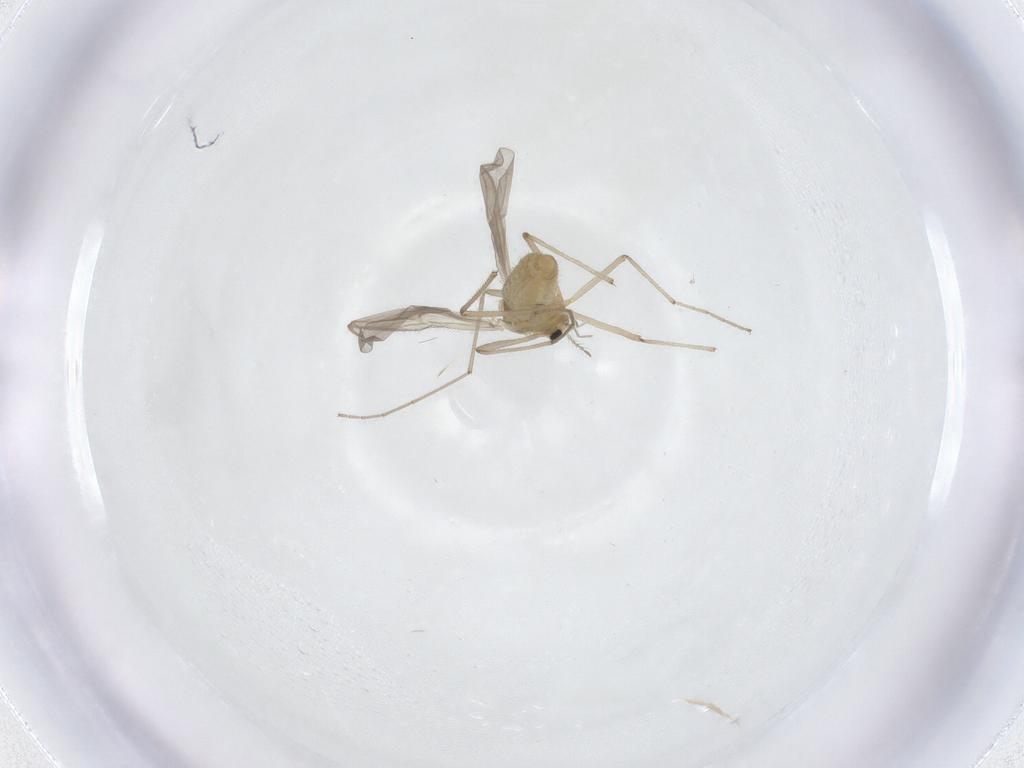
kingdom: Animalia
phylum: Arthropoda
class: Insecta
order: Diptera
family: Chironomidae
